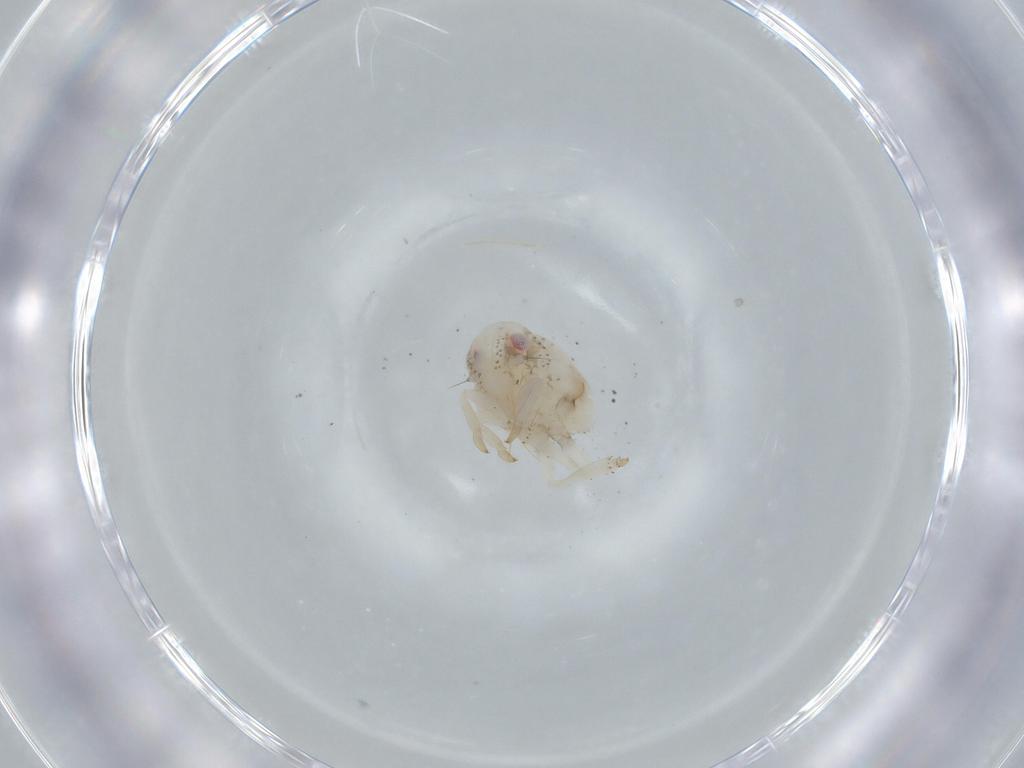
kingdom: Animalia
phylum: Arthropoda
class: Insecta
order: Hemiptera
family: Acanaloniidae
